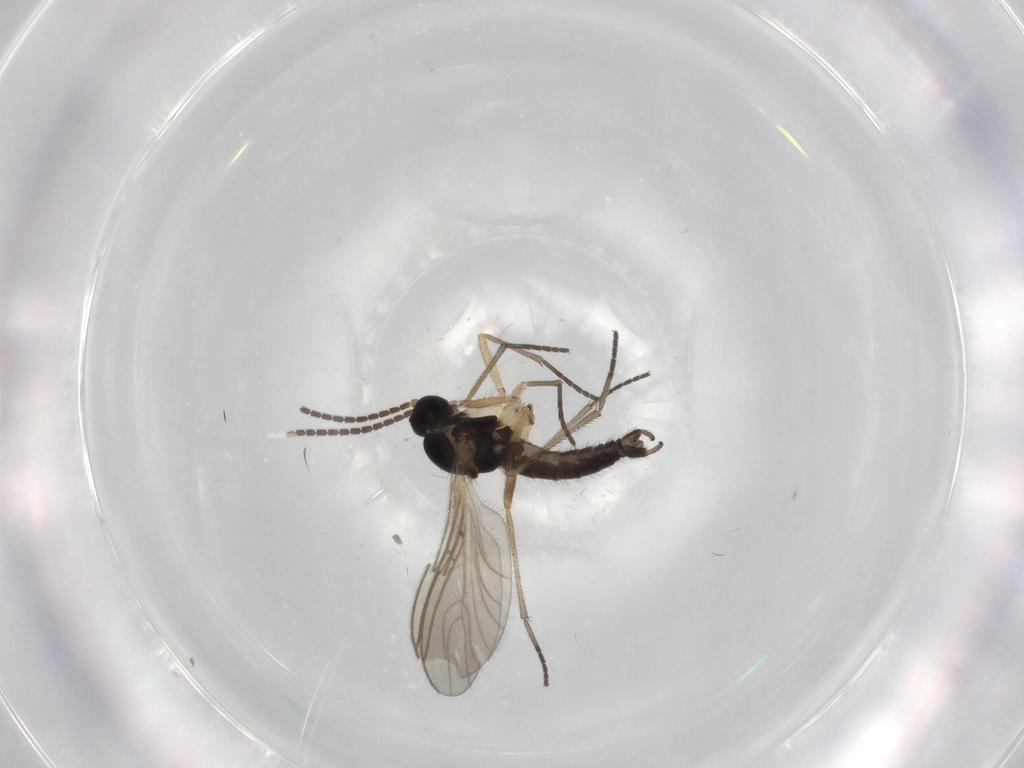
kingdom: Animalia
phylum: Arthropoda
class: Insecta
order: Diptera
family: Sciaridae
